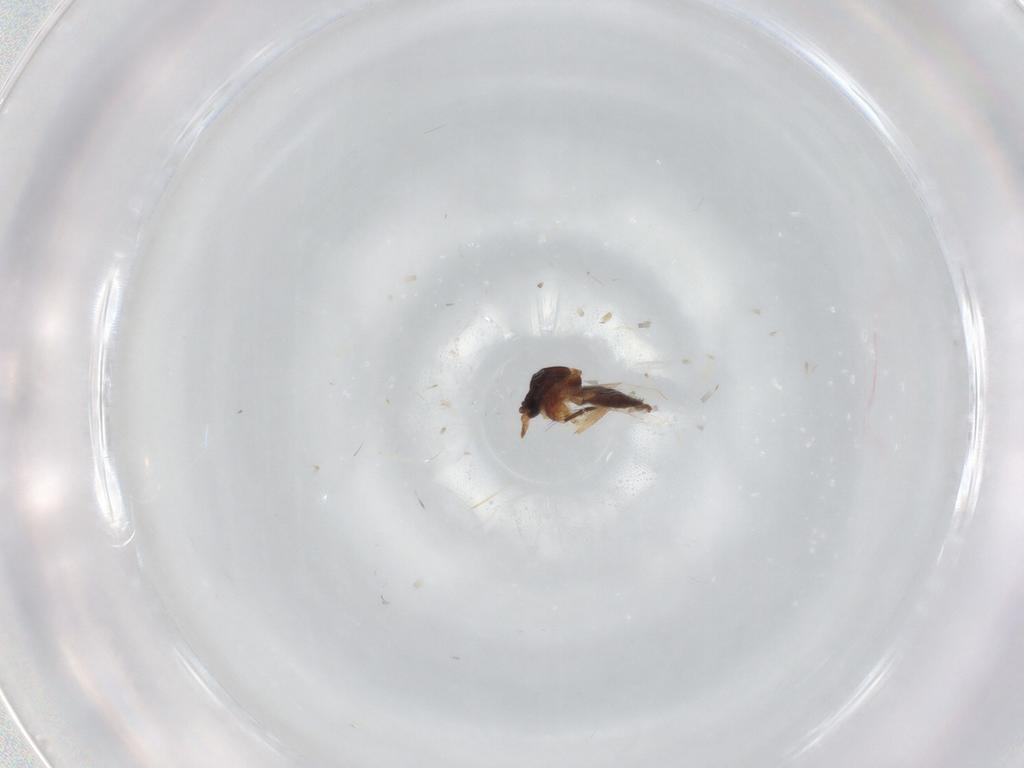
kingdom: Animalia
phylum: Arthropoda
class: Insecta
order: Diptera
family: Ceratopogonidae
